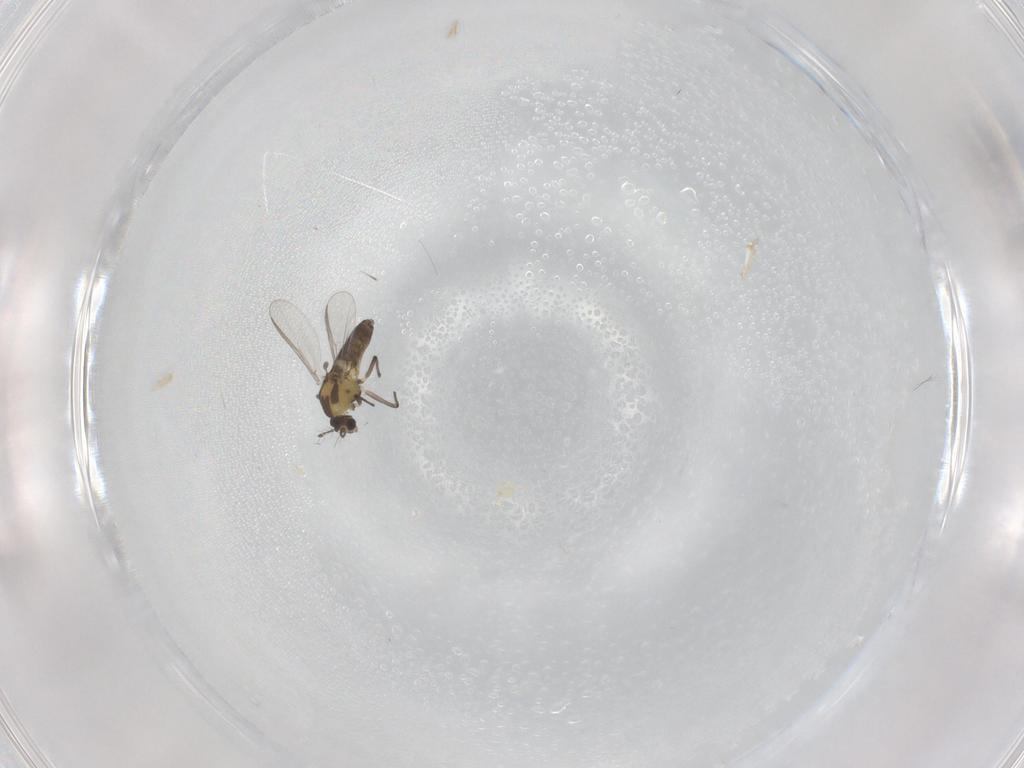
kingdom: Animalia
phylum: Arthropoda
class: Insecta
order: Diptera
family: Chironomidae
